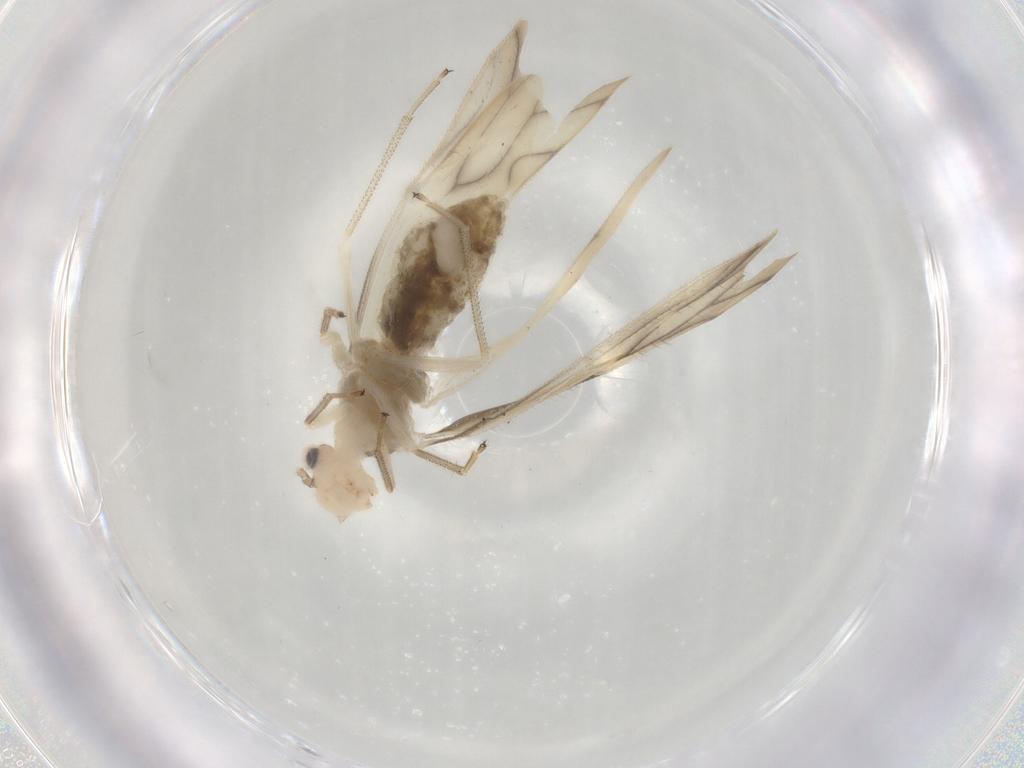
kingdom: Animalia
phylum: Arthropoda
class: Insecta
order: Psocodea
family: Caeciliusidae
